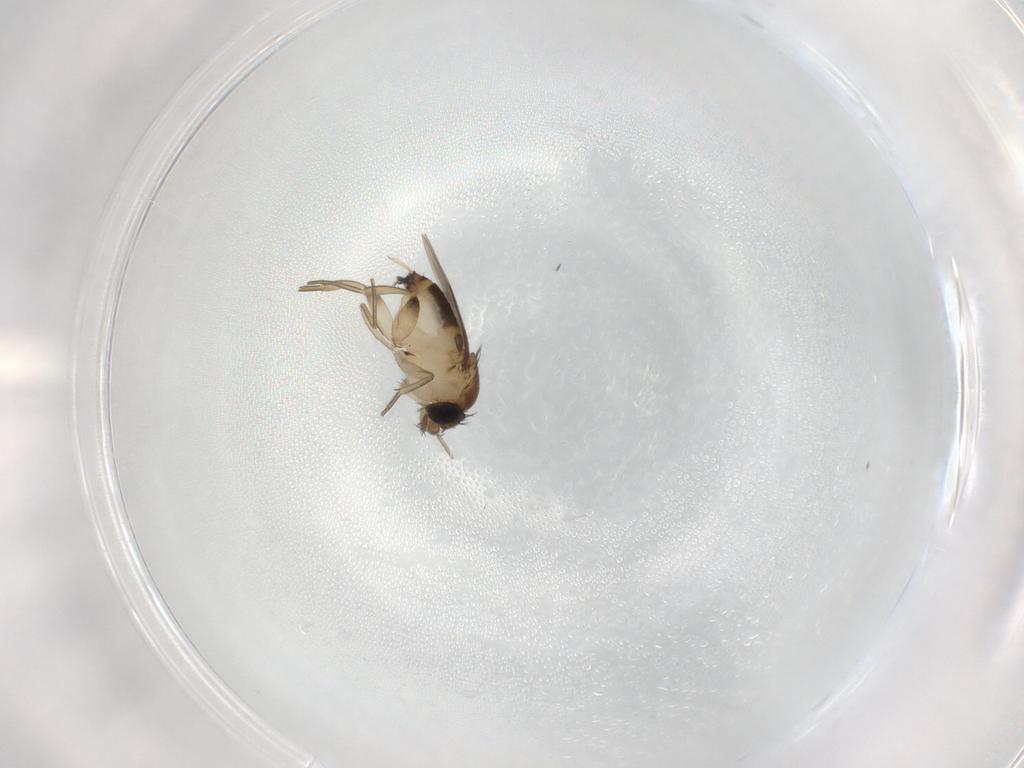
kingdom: Animalia
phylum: Arthropoda
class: Insecta
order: Diptera
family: Phoridae
